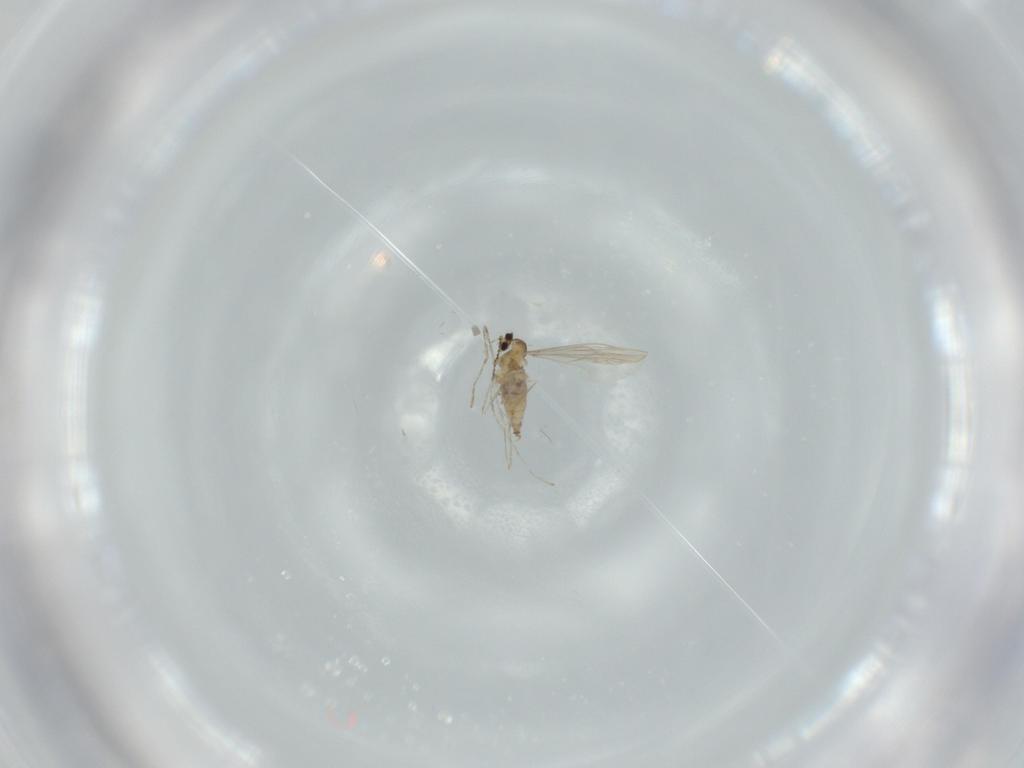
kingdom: Animalia
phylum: Arthropoda
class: Insecta
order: Diptera
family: Cecidomyiidae
